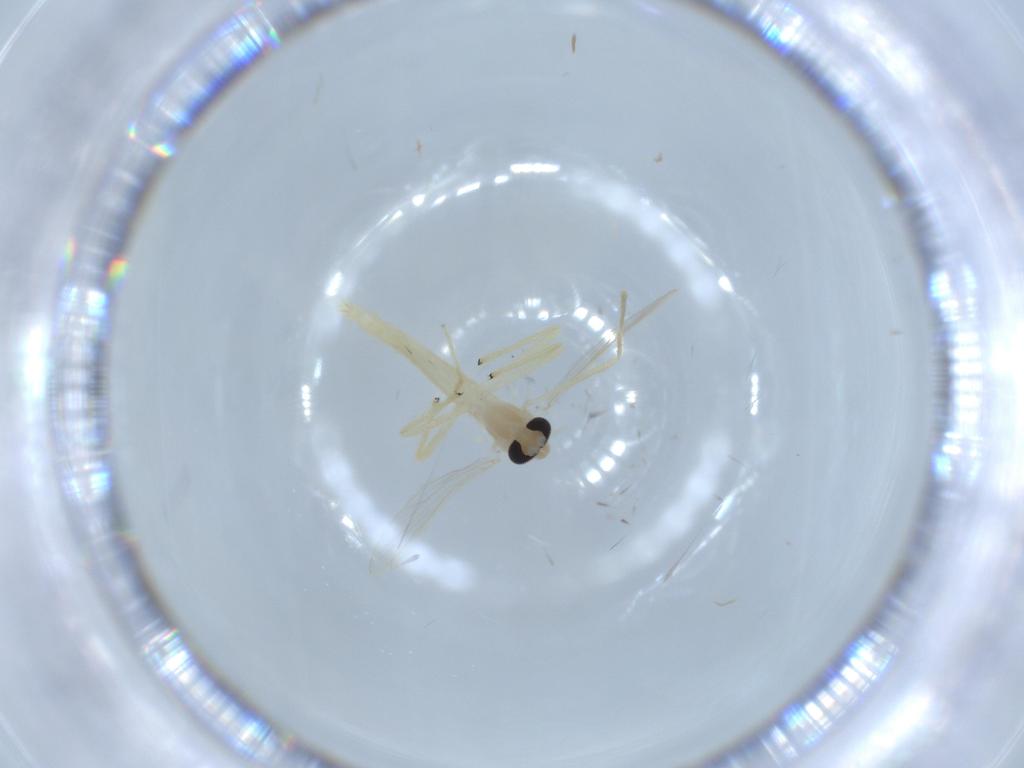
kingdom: Animalia
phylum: Arthropoda
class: Insecta
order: Diptera
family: Chironomidae
